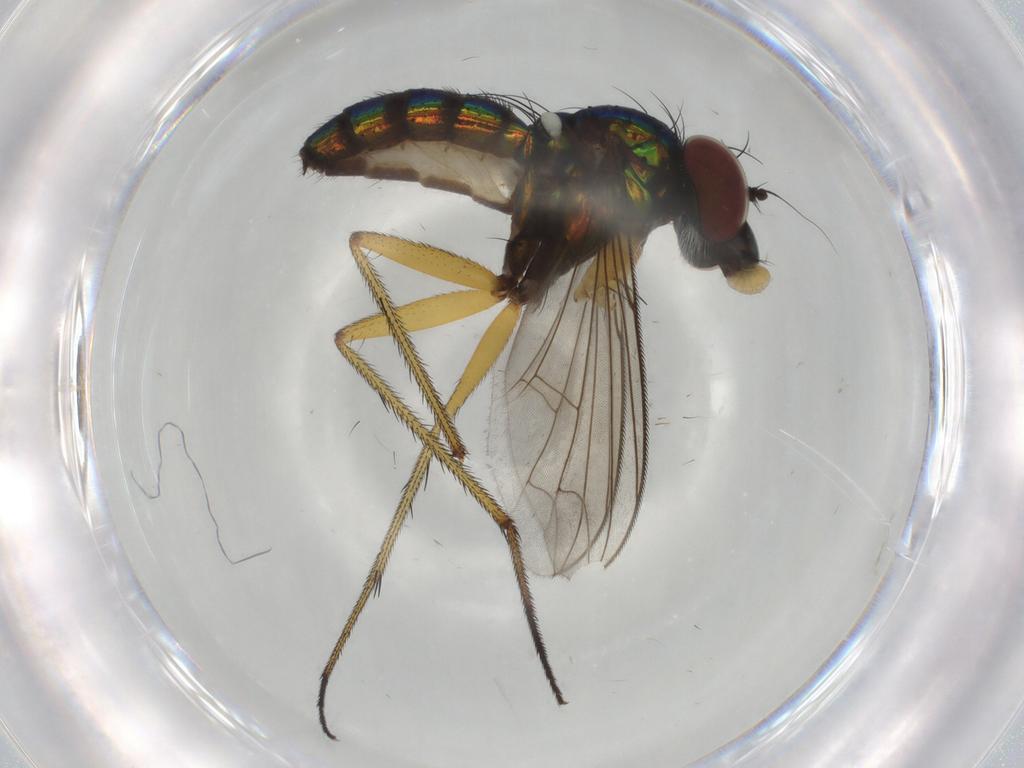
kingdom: Animalia
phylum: Arthropoda
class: Insecta
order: Diptera
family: Dolichopodidae
